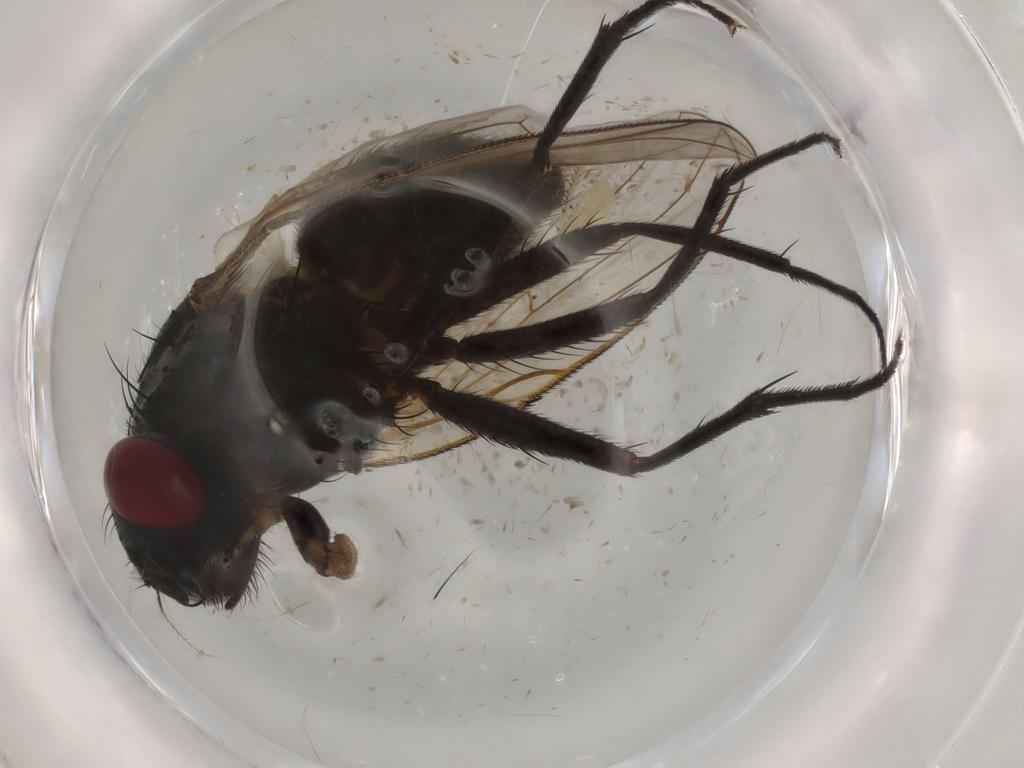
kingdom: Animalia
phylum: Arthropoda
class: Insecta
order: Diptera
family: Muscidae
